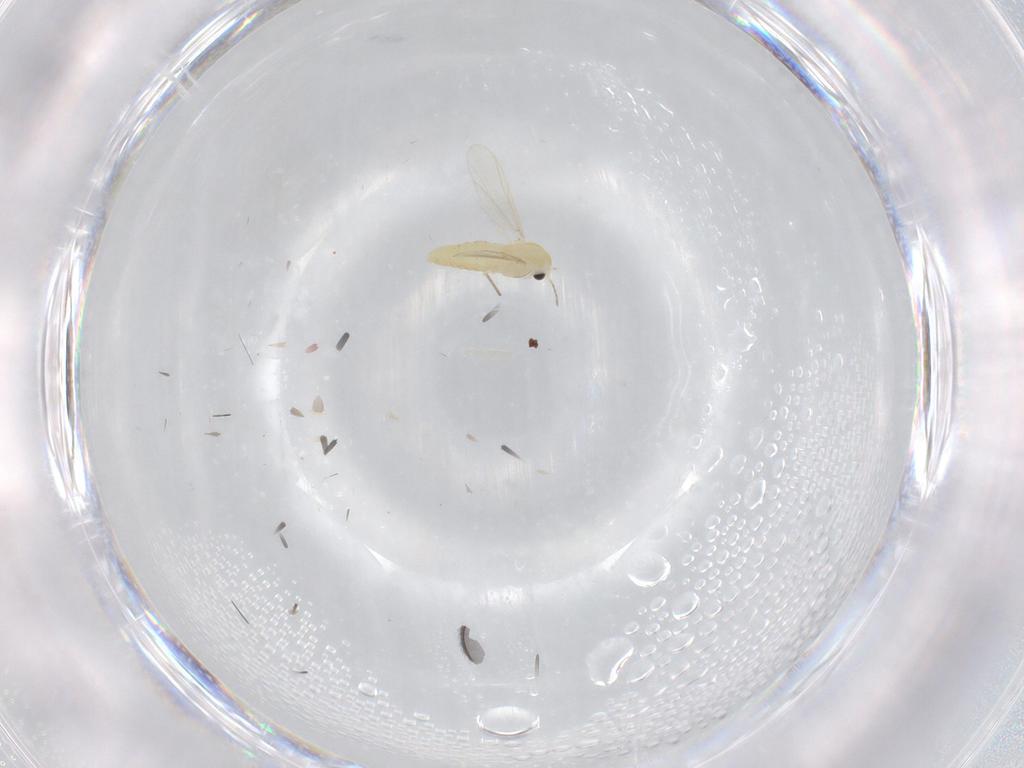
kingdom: Animalia
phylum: Arthropoda
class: Insecta
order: Diptera
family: Chironomidae
